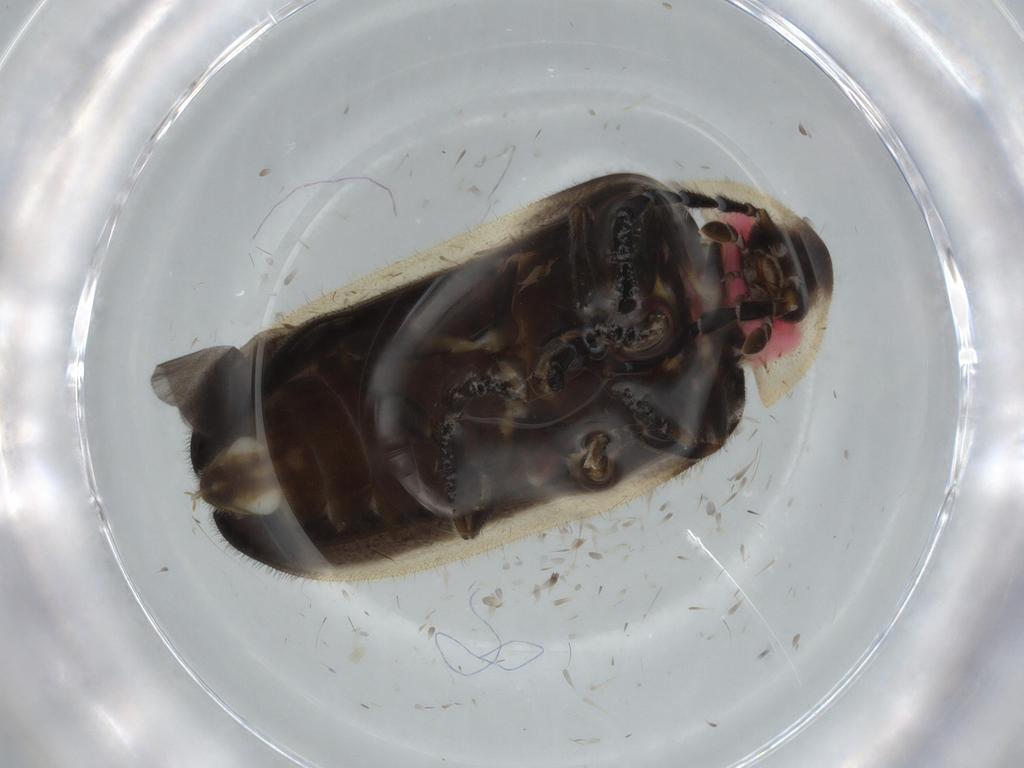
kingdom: Animalia
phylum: Arthropoda
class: Insecta
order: Coleoptera
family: Lampyridae
